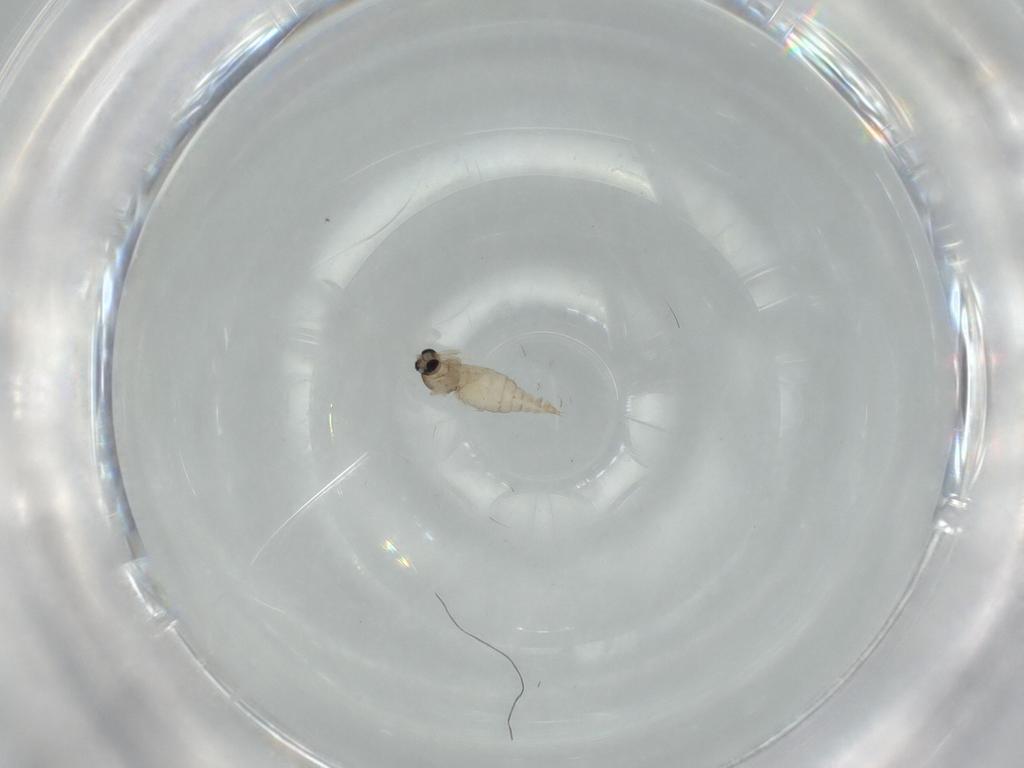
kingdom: Animalia
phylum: Arthropoda
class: Insecta
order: Diptera
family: Cecidomyiidae
